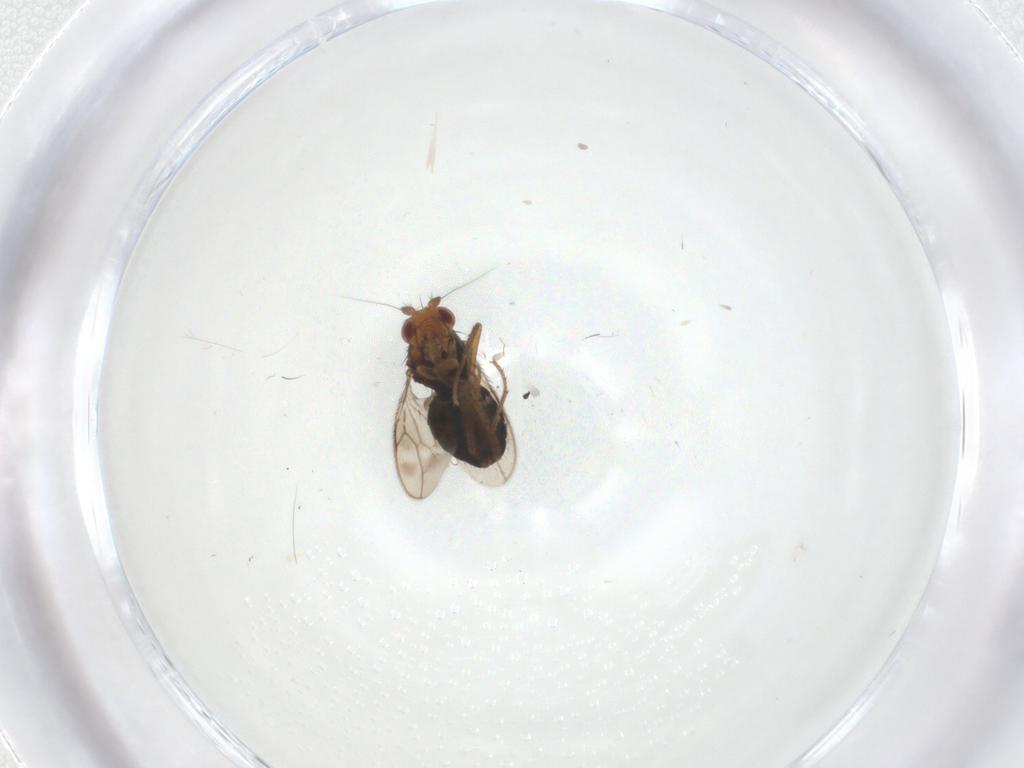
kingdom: Animalia
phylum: Arthropoda
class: Insecta
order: Diptera
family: Sphaeroceridae
